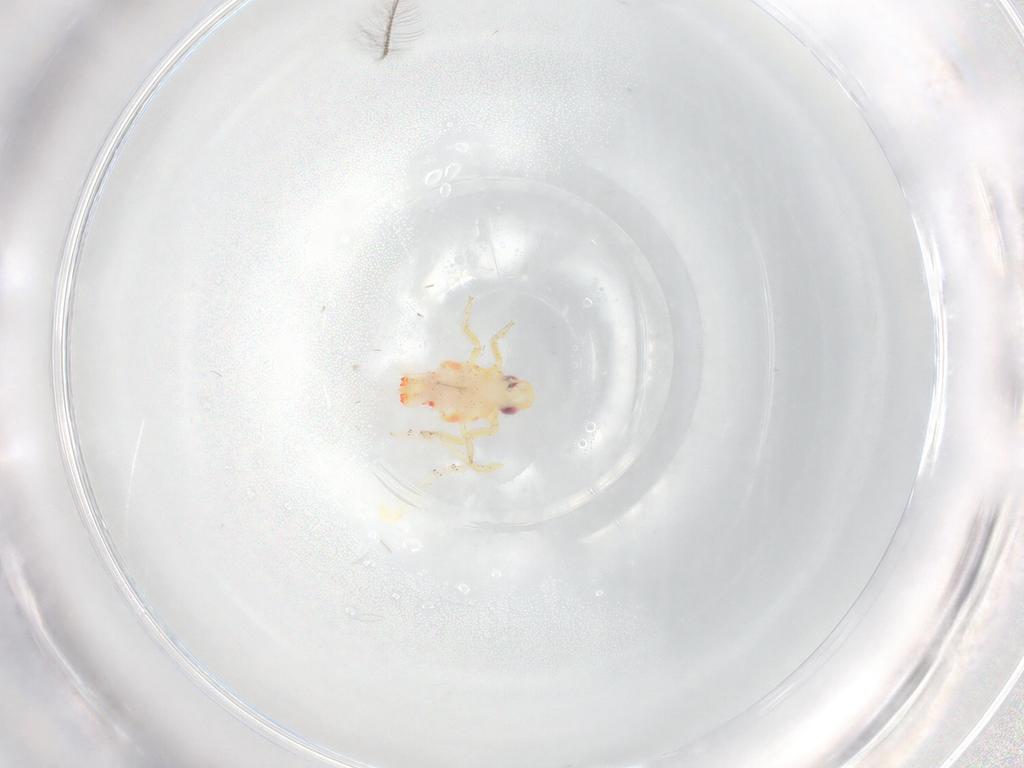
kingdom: Animalia
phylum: Arthropoda
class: Insecta
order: Hemiptera
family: Tropiduchidae
